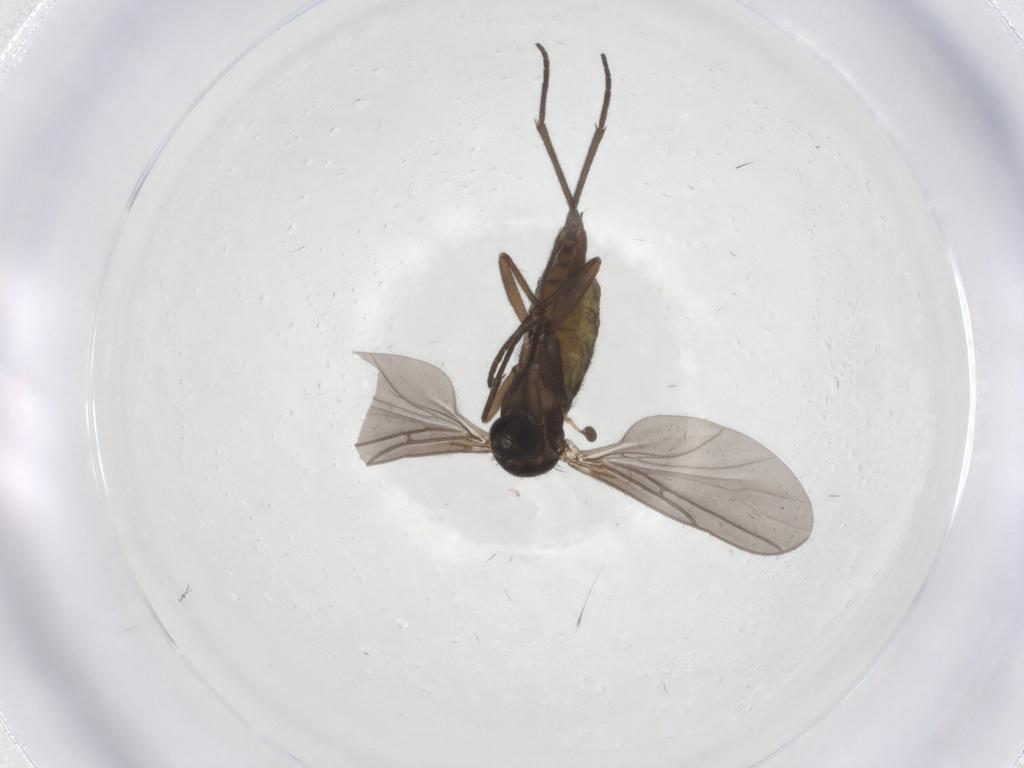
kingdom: Animalia
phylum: Arthropoda
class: Insecta
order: Diptera
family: Sciaridae
